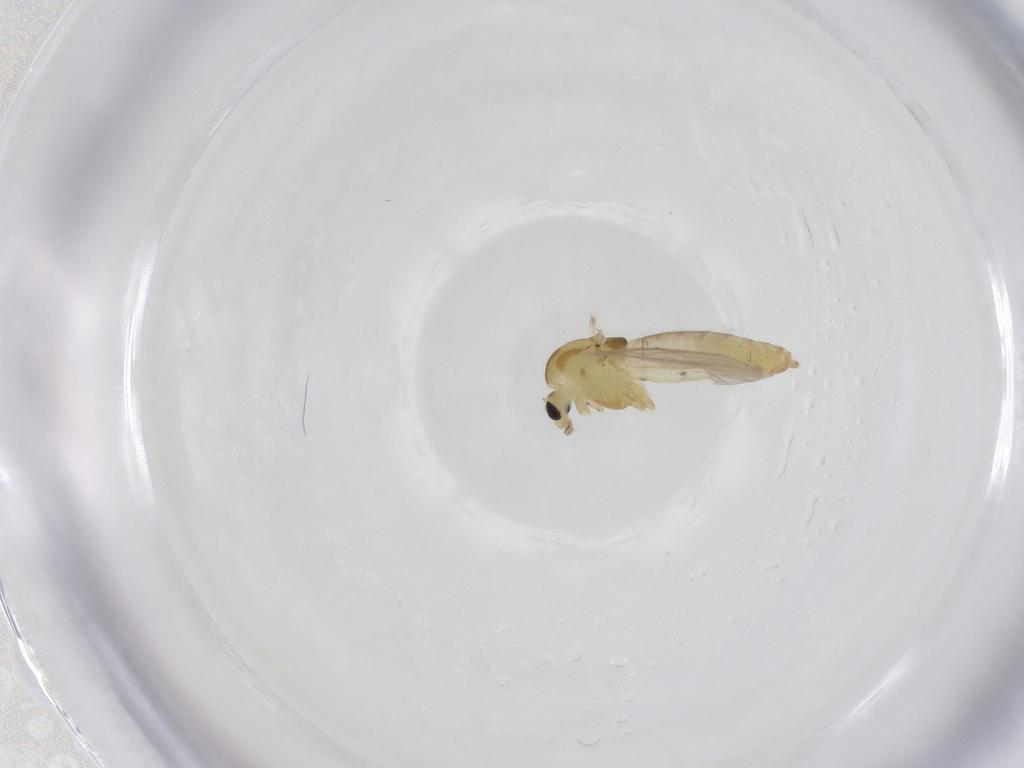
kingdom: Animalia
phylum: Arthropoda
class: Insecta
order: Diptera
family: Chironomidae
